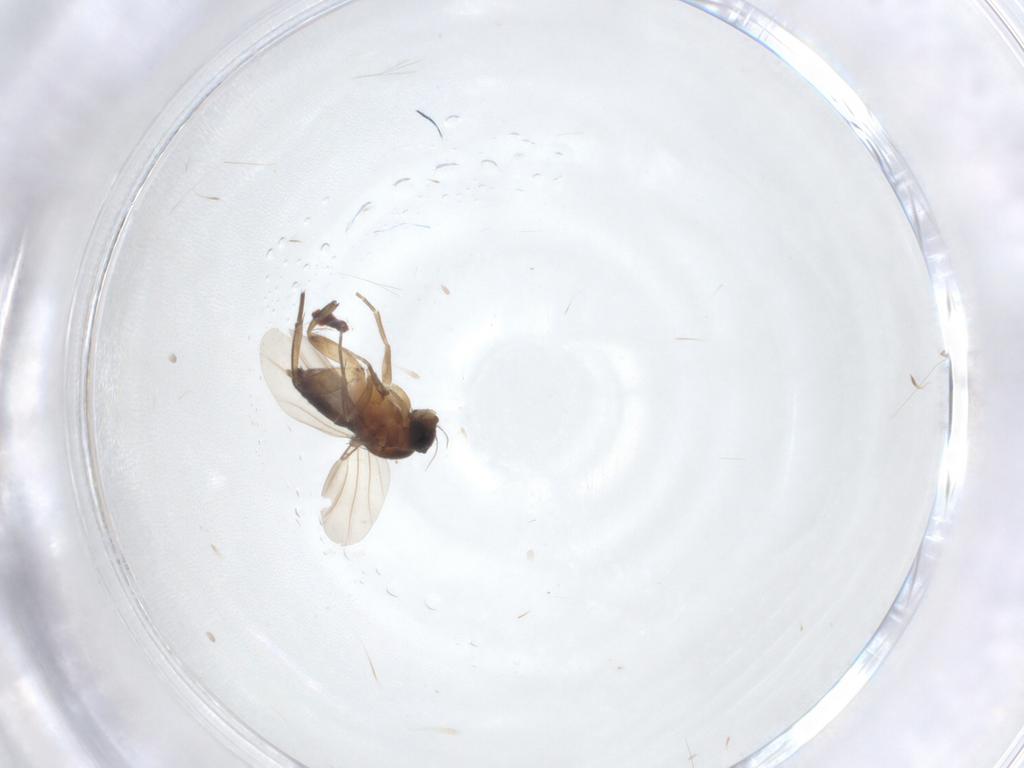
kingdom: Animalia
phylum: Arthropoda
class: Insecta
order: Diptera
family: Phoridae
